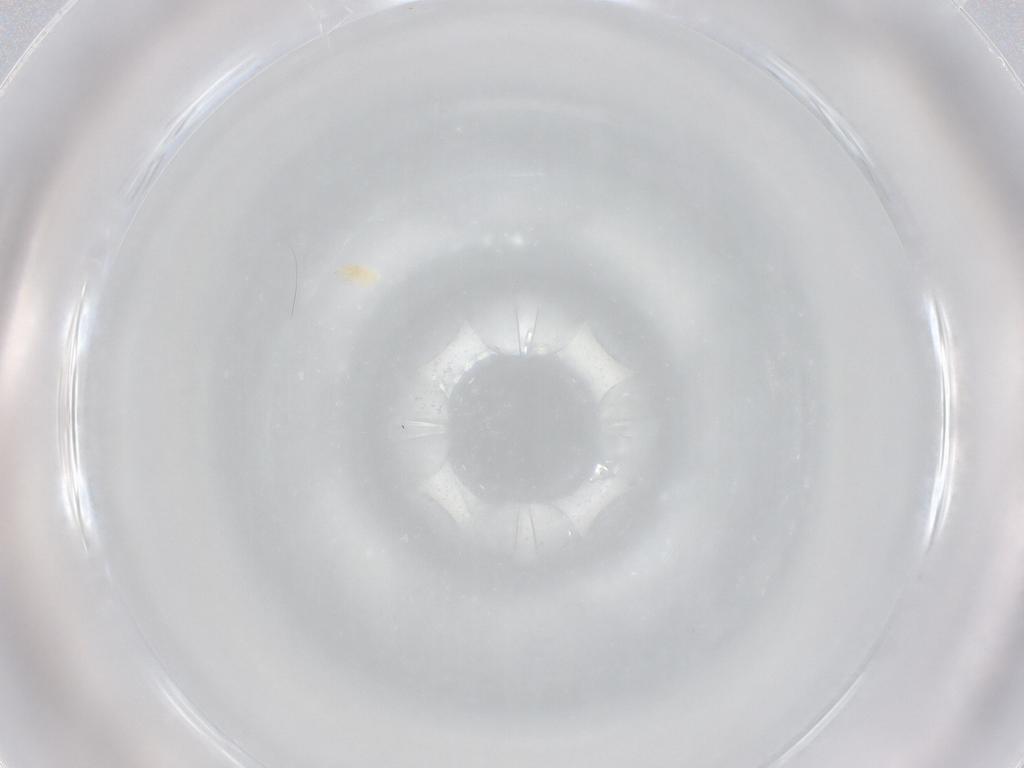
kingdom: Animalia
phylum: Arthropoda
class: Arachnida
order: Trombidiformes
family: Eupodidae
